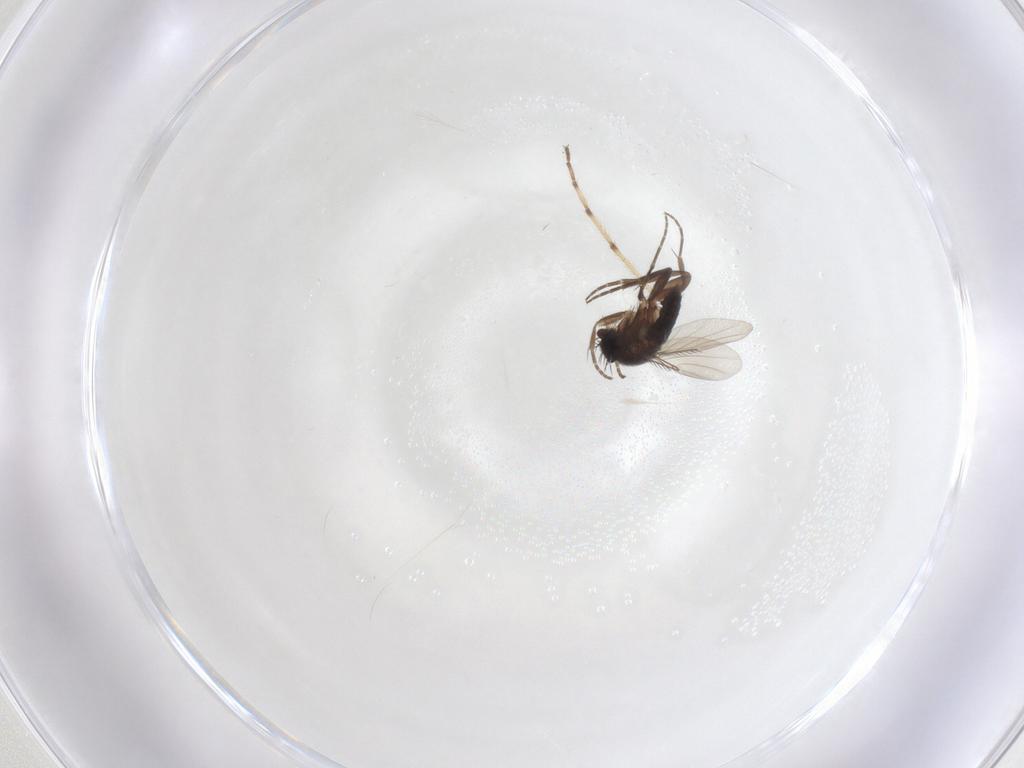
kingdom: Animalia
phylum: Arthropoda
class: Insecta
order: Diptera
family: Phoridae
